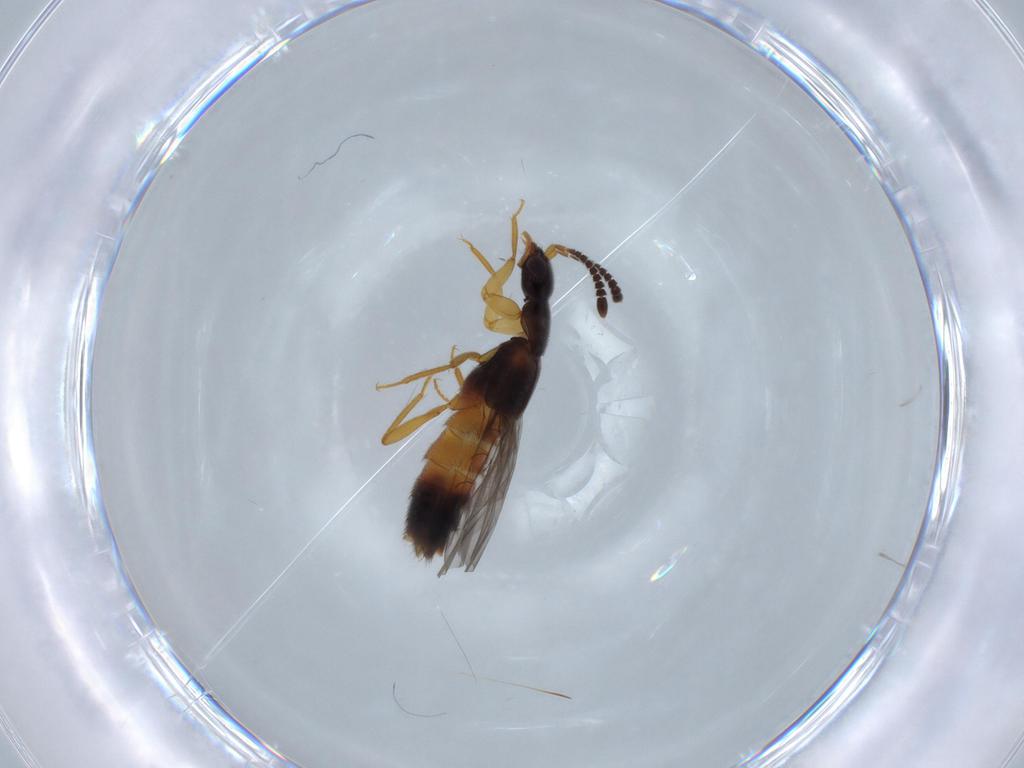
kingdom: Animalia
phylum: Arthropoda
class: Insecta
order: Coleoptera
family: Staphylinidae
